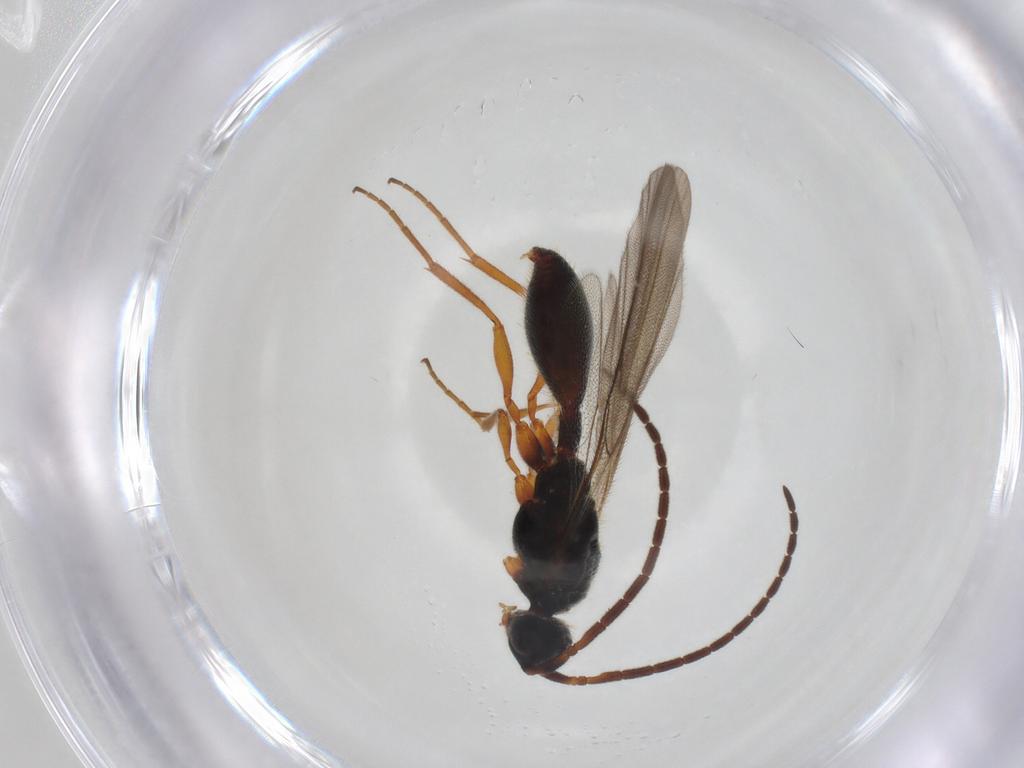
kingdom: Animalia
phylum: Arthropoda
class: Insecta
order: Hymenoptera
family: Diapriidae
